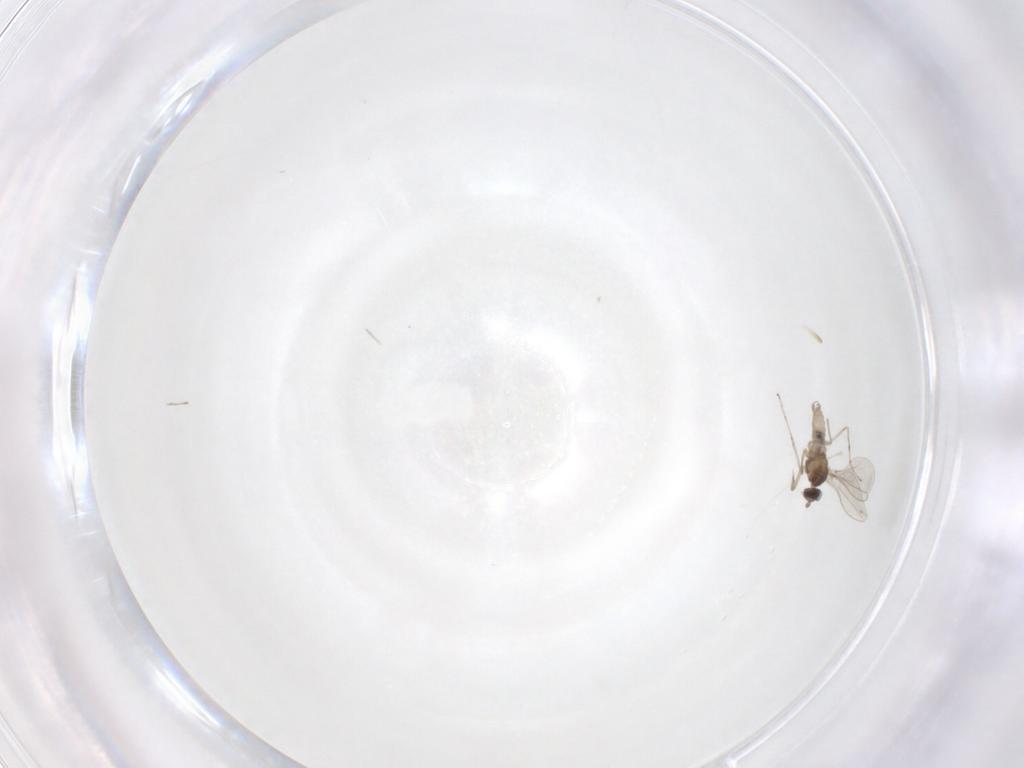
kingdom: Animalia
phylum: Arthropoda
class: Insecta
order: Diptera
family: Cecidomyiidae
